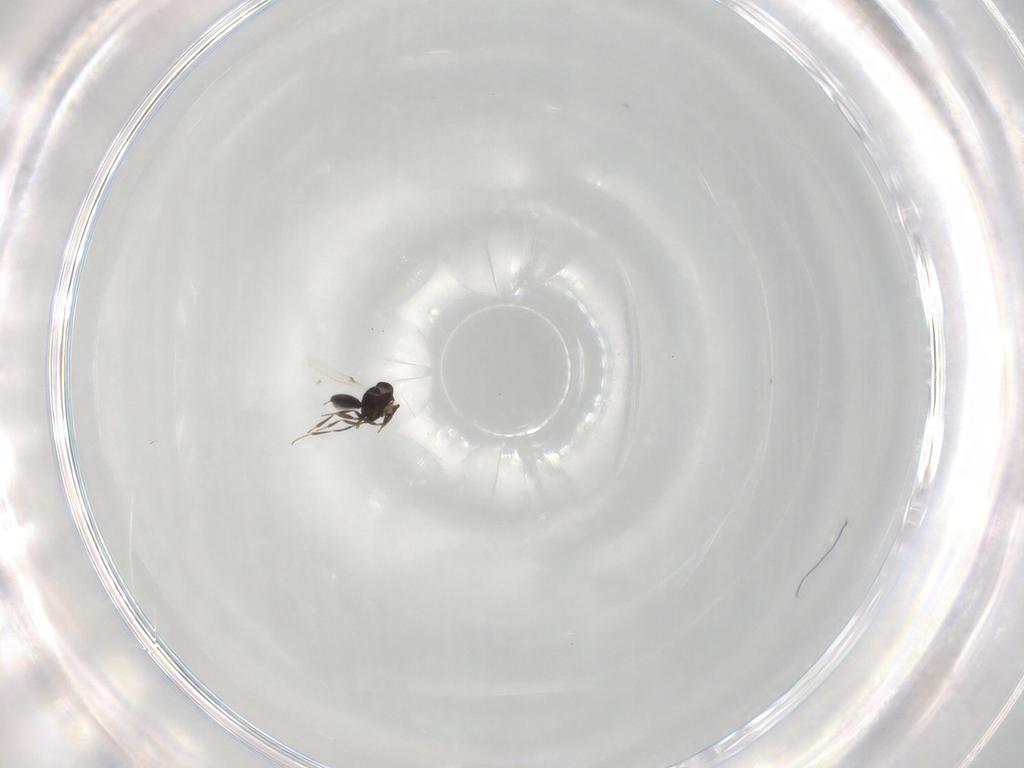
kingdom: Animalia
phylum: Arthropoda
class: Insecta
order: Hymenoptera
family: Scelionidae
